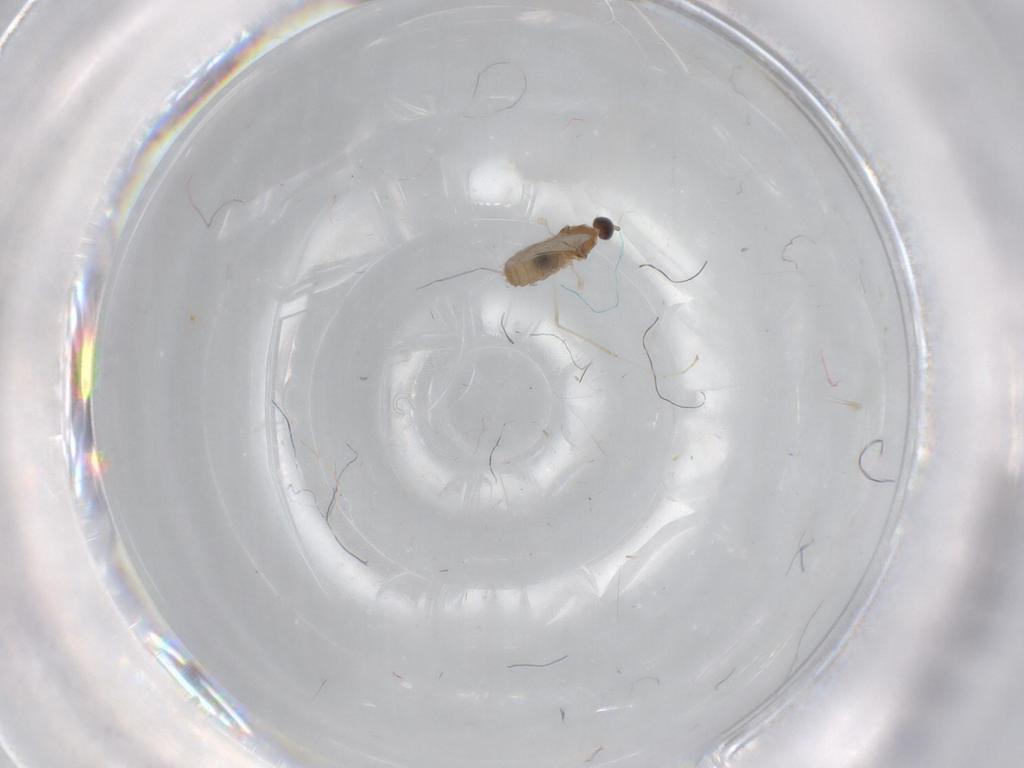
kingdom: Animalia
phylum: Arthropoda
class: Insecta
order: Diptera
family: Cecidomyiidae
